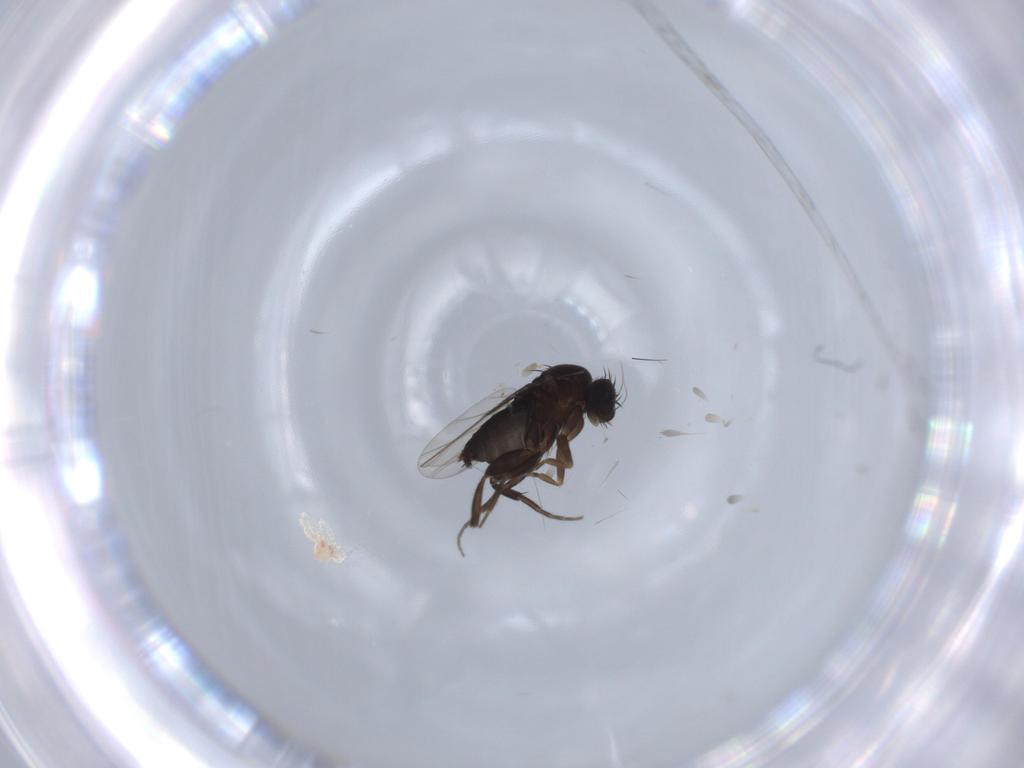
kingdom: Animalia
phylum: Arthropoda
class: Insecta
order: Diptera
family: Phoridae
